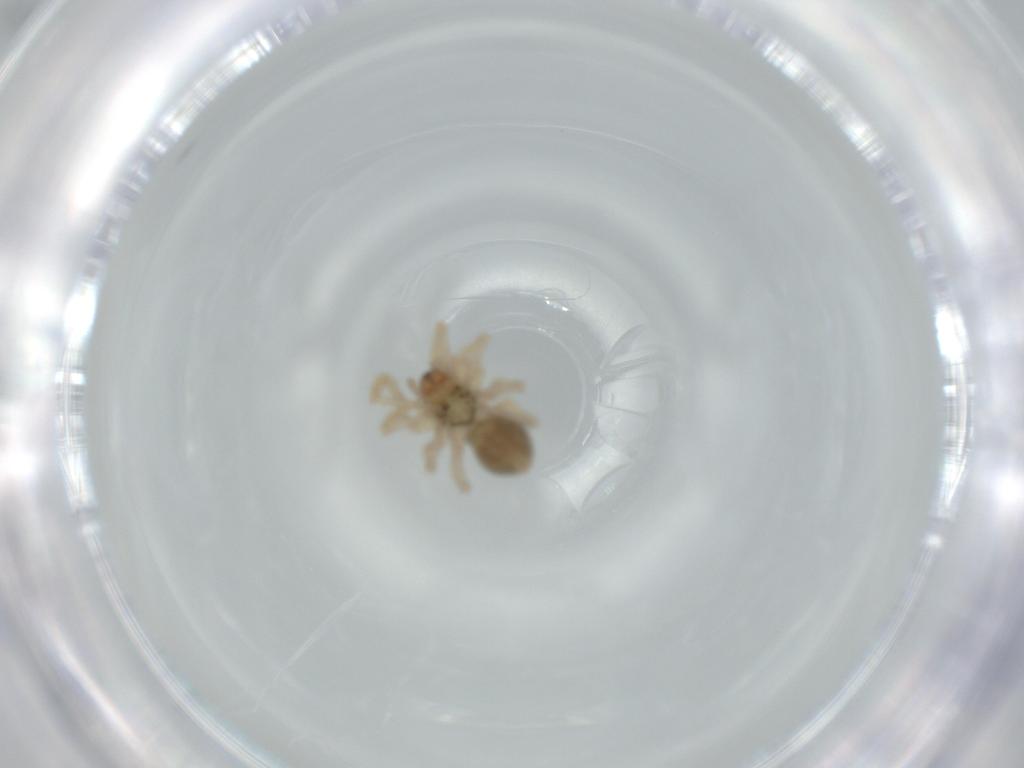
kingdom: Animalia
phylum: Arthropoda
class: Arachnida
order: Araneae
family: Linyphiidae
